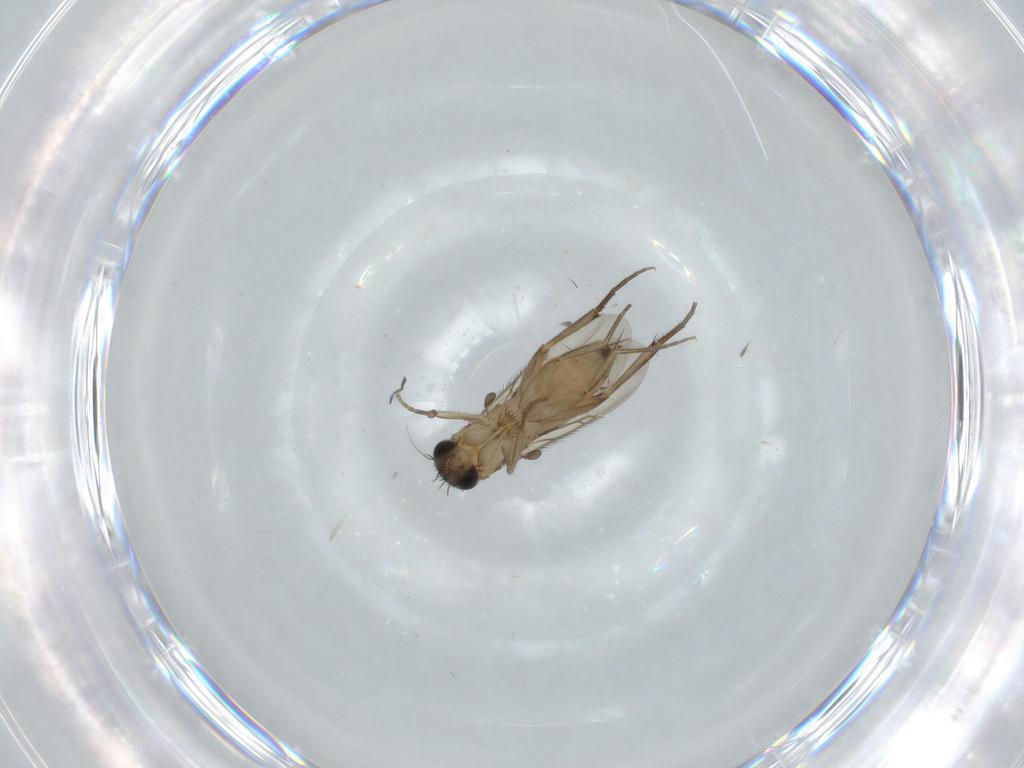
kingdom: Animalia
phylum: Arthropoda
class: Insecta
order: Diptera
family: Phoridae
